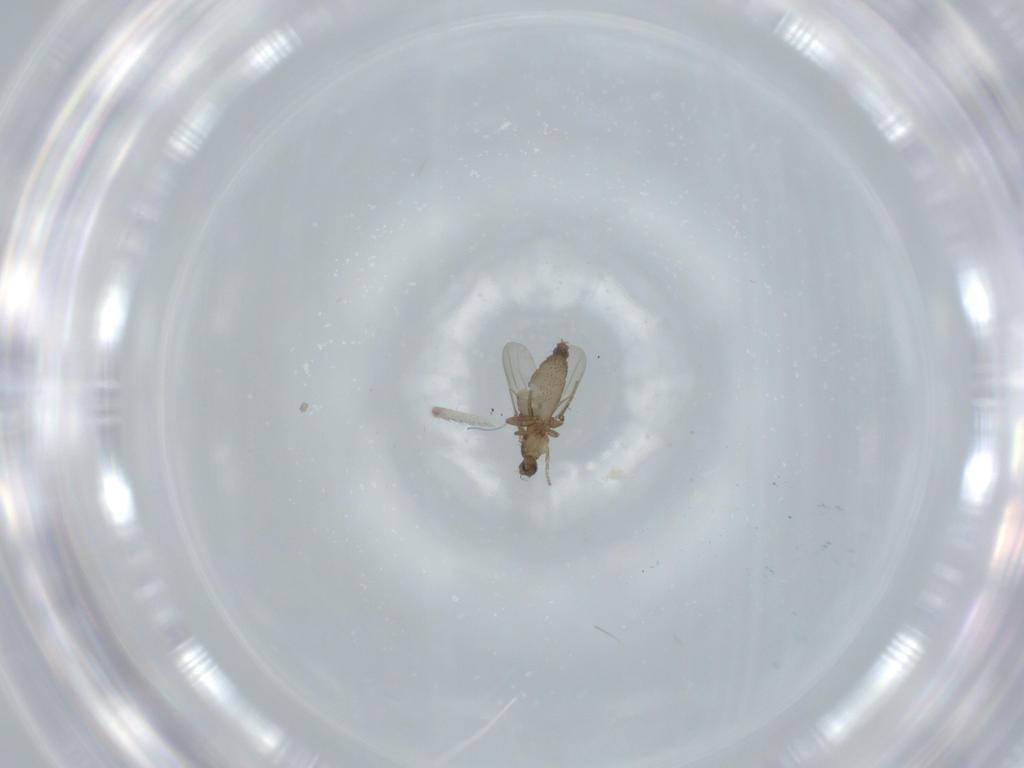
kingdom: Animalia
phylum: Arthropoda
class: Insecta
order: Diptera
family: Phoridae
